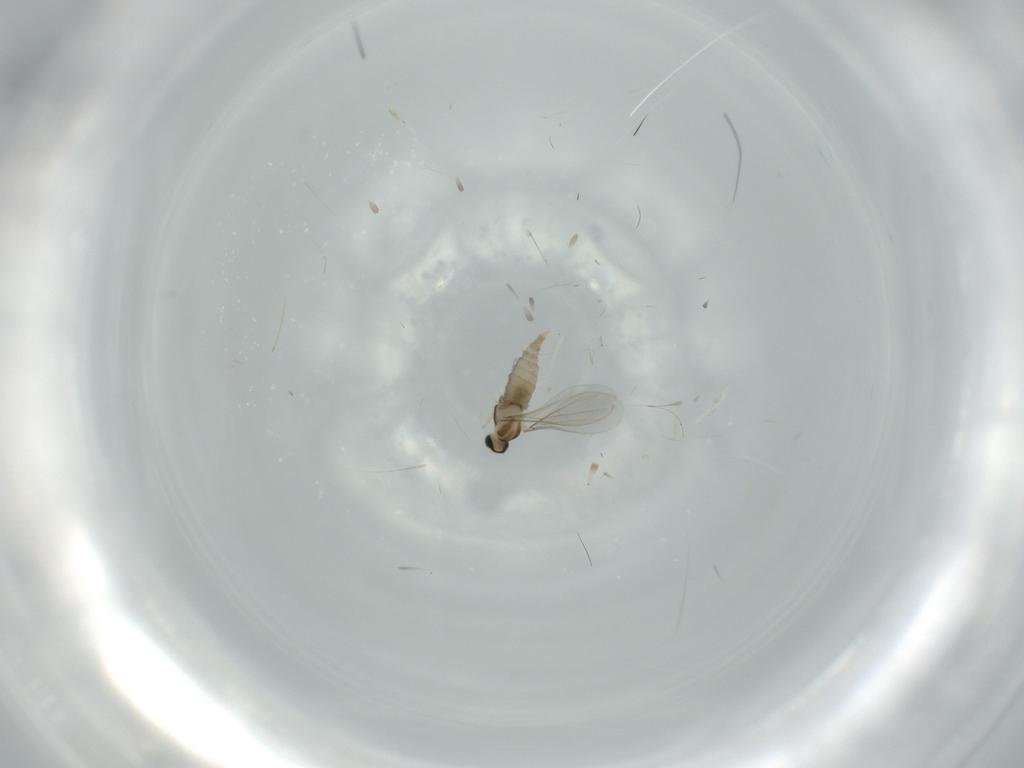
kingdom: Animalia
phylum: Arthropoda
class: Insecta
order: Diptera
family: Cecidomyiidae
